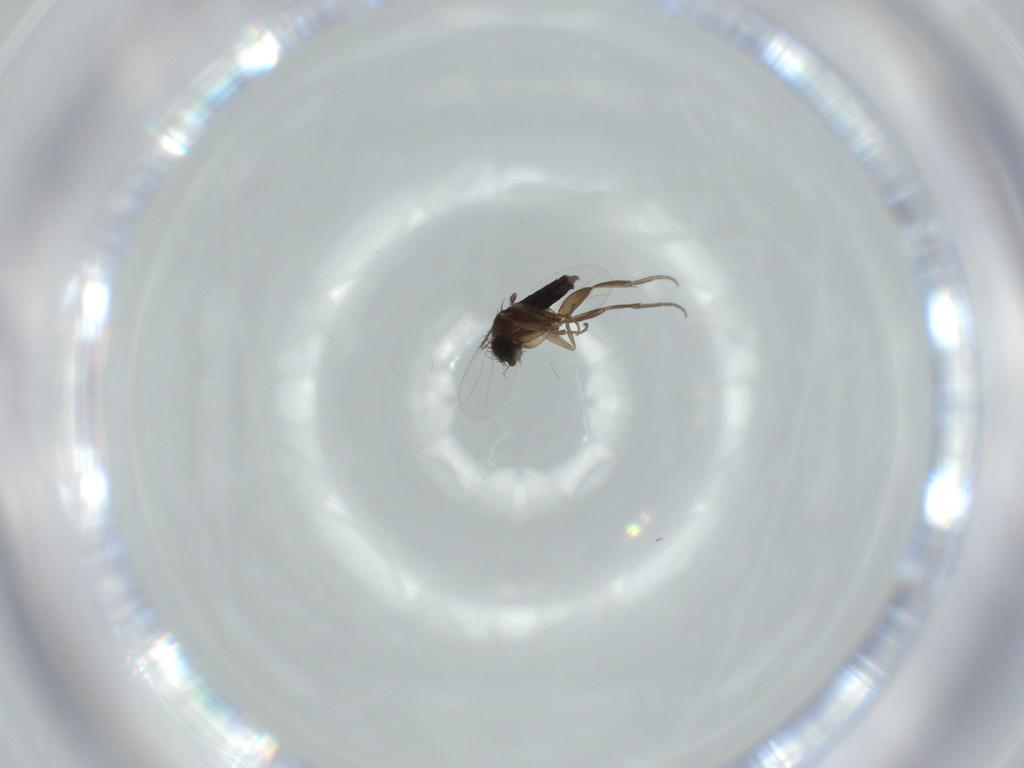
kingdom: Animalia
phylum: Arthropoda
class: Insecta
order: Diptera
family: Phoridae
